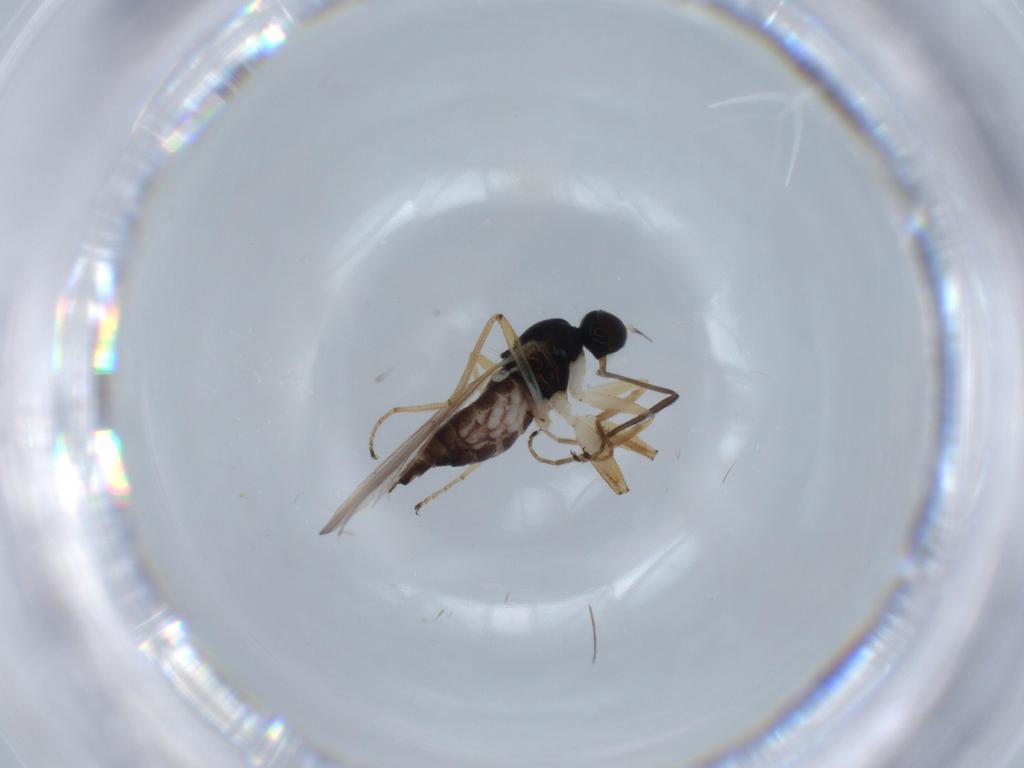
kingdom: Animalia
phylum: Arthropoda
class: Insecta
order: Diptera
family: Hybotidae
